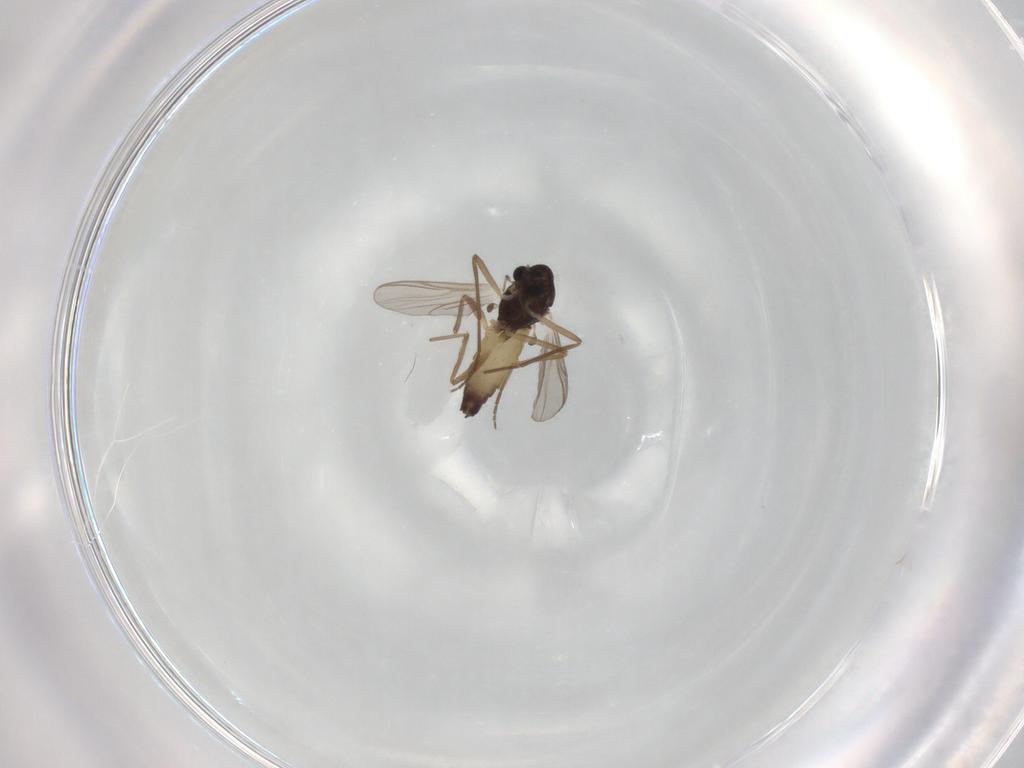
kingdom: Animalia
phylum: Arthropoda
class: Insecta
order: Diptera
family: Chironomidae
